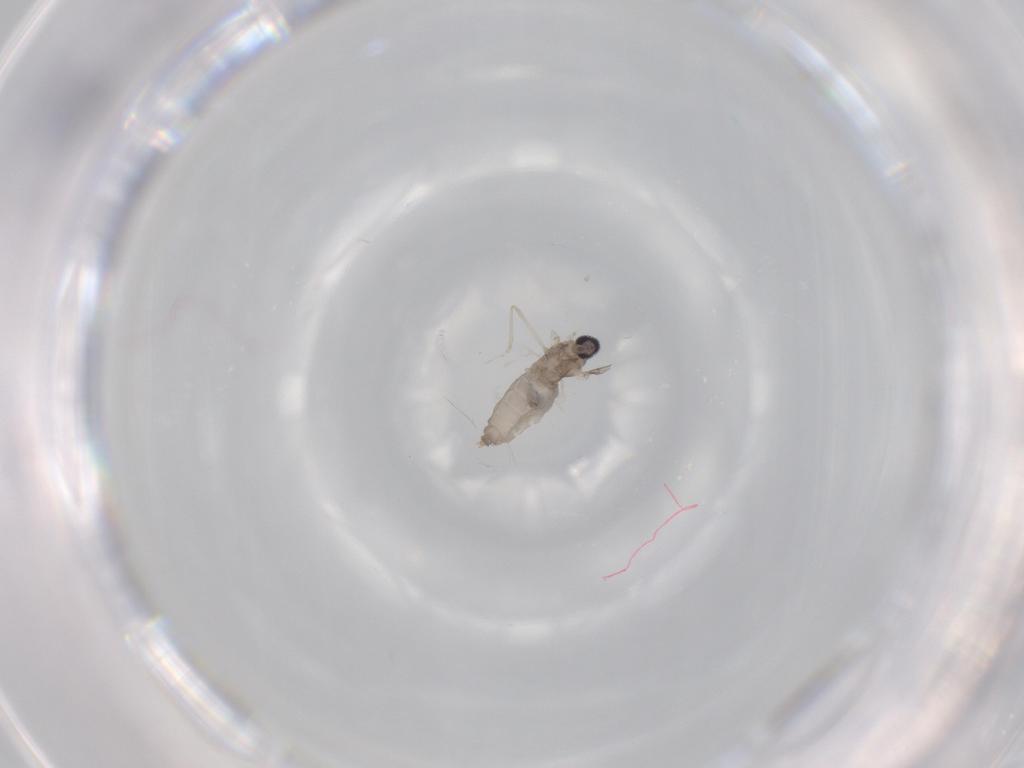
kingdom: Animalia
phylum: Arthropoda
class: Insecta
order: Diptera
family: Cecidomyiidae
